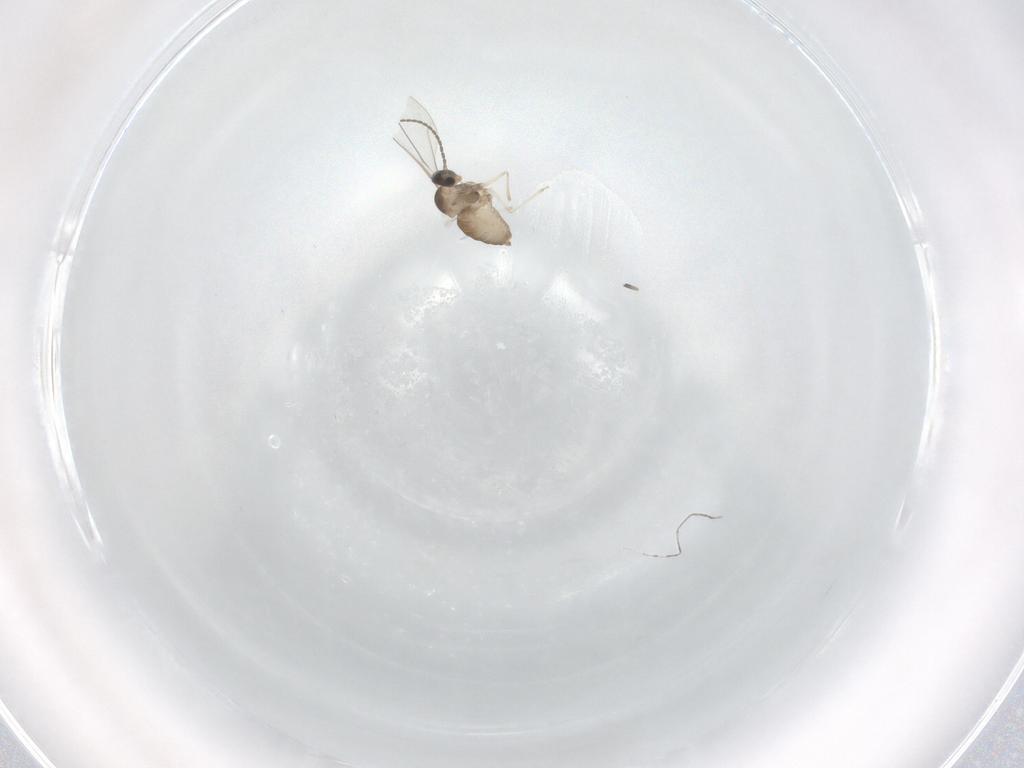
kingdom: Animalia
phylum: Arthropoda
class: Insecta
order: Diptera
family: Cecidomyiidae
